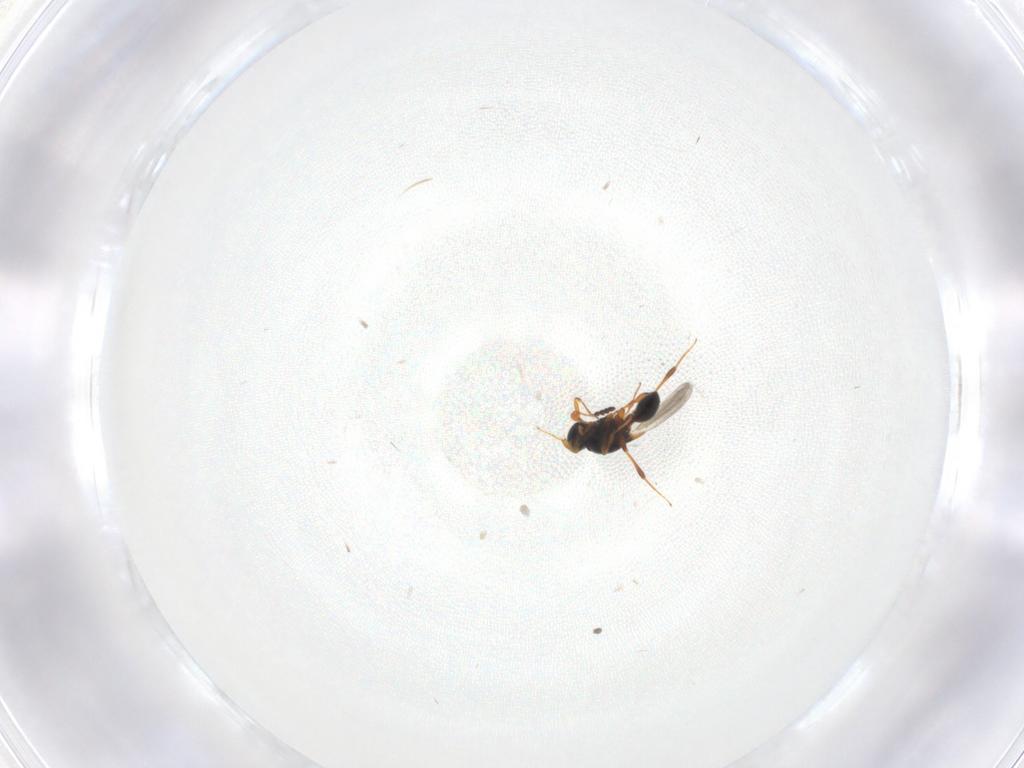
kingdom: Animalia
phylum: Arthropoda
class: Insecta
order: Hymenoptera
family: Platygastridae
